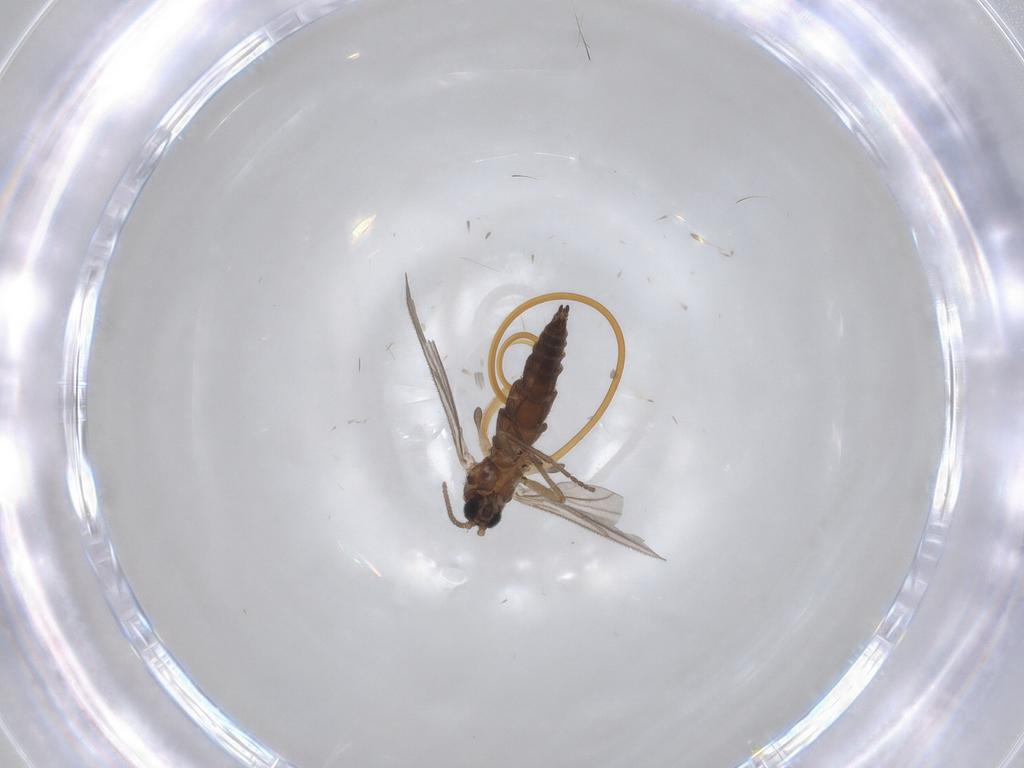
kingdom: Animalia
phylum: Arthropoda
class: Insecta
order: Diptera
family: Sciaridae
